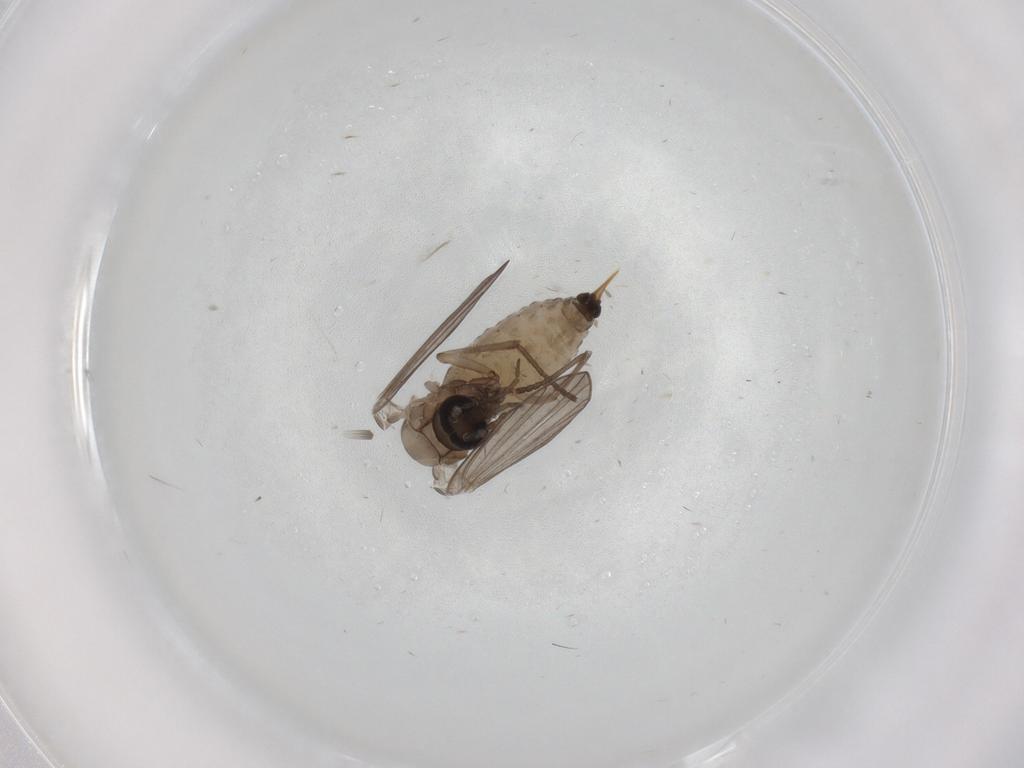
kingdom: Animalia
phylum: Arthropoda
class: Insecta
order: Diptera
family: Psychodidae
